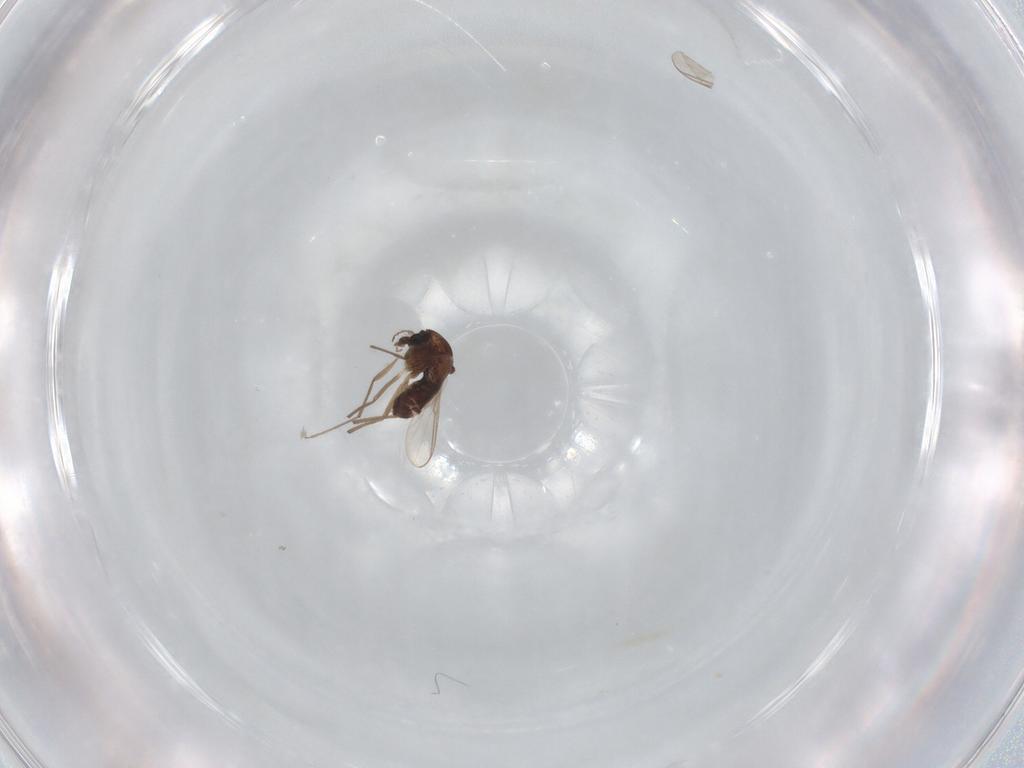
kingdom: Animalia
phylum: Arthropoda
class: Insecta
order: Diptera
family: Chironomidae
